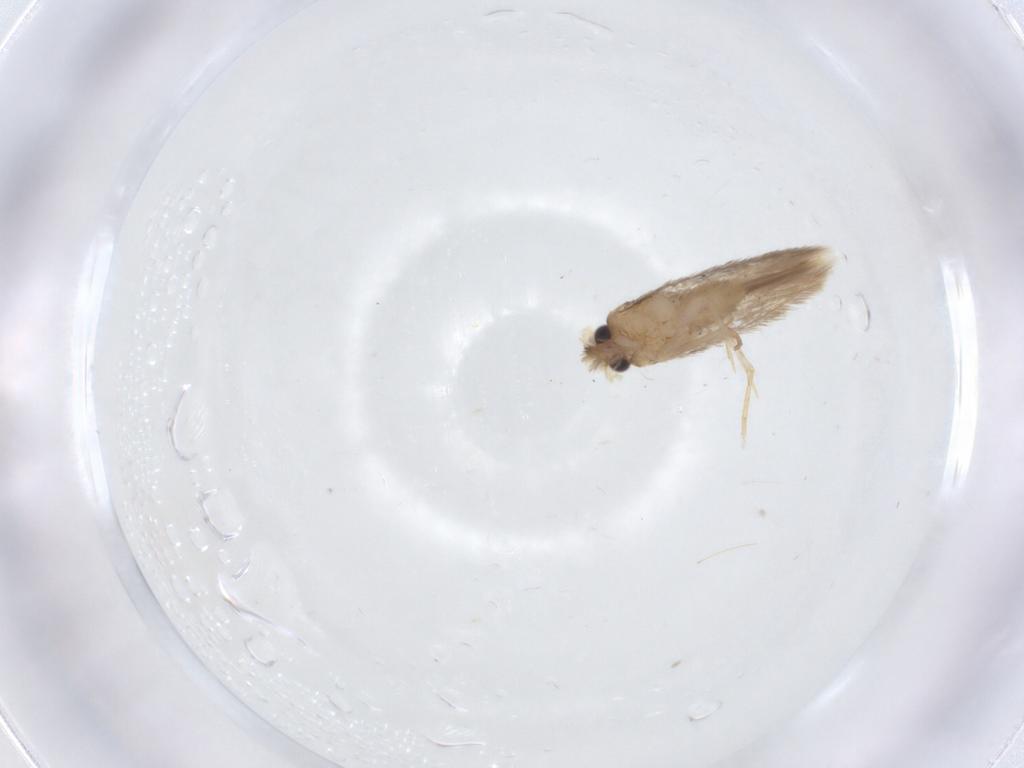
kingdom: Animalia
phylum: Arthropoda
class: Insecta
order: Lepidoptera
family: Nepticulidae
